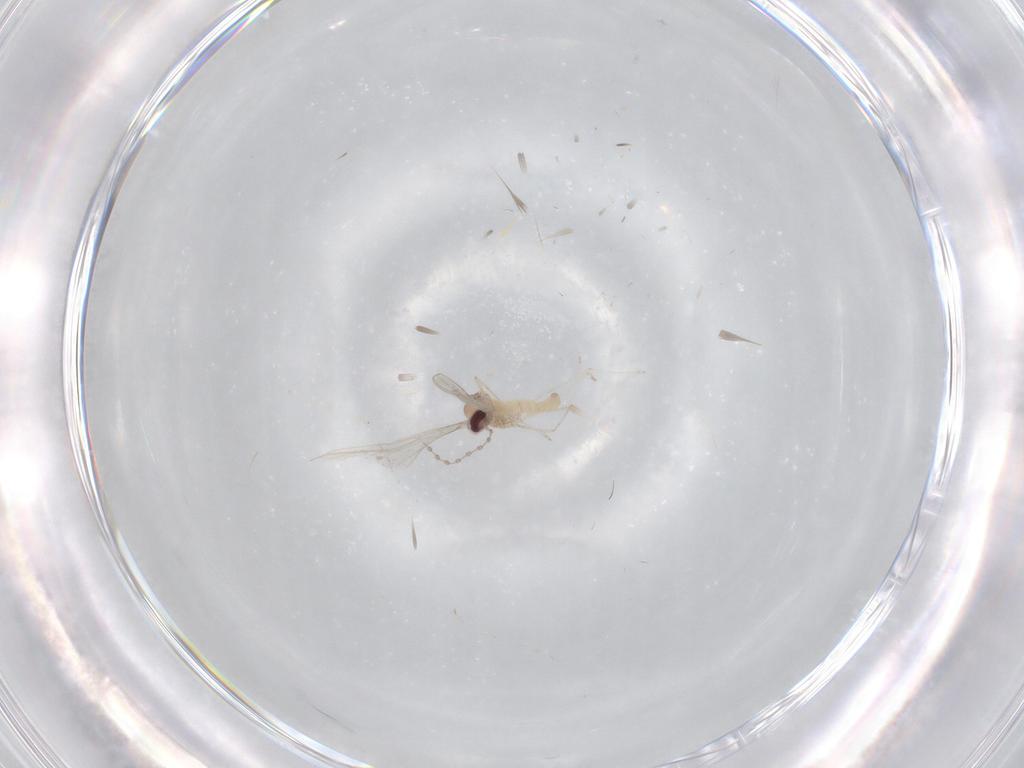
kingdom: Animalia
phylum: Arthropoda
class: Insecta
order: Diptera
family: Cecidomyiidae
